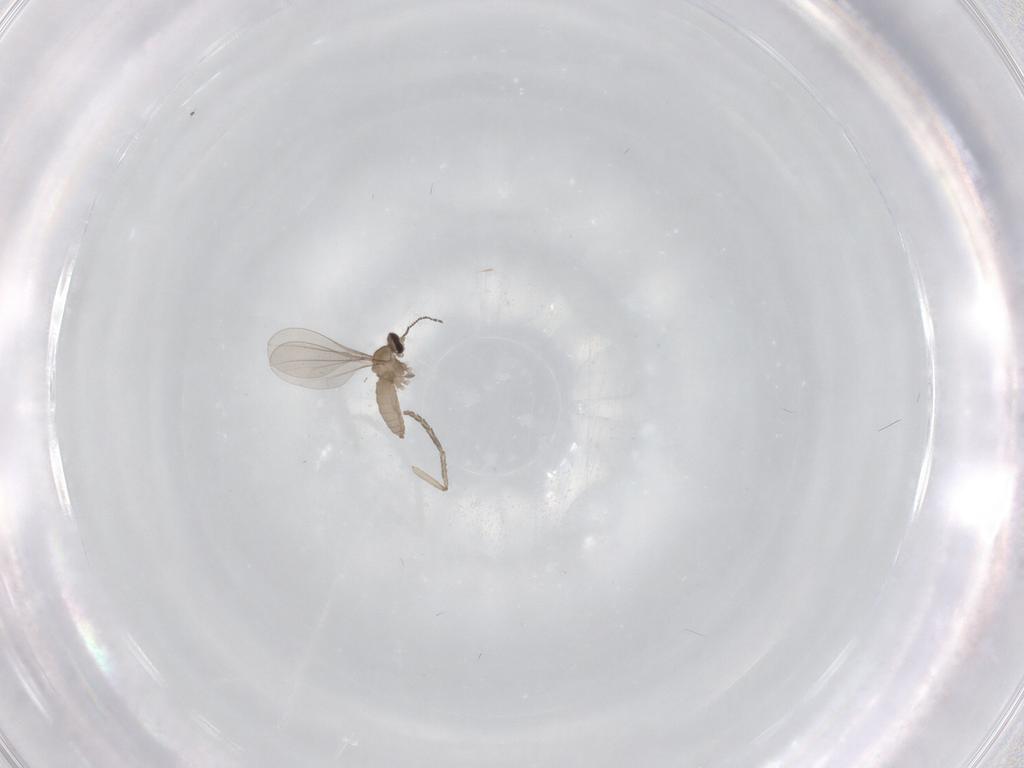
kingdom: Animalia
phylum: Arthropoda
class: Insecta
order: Diptera
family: Cecidomyiidae
